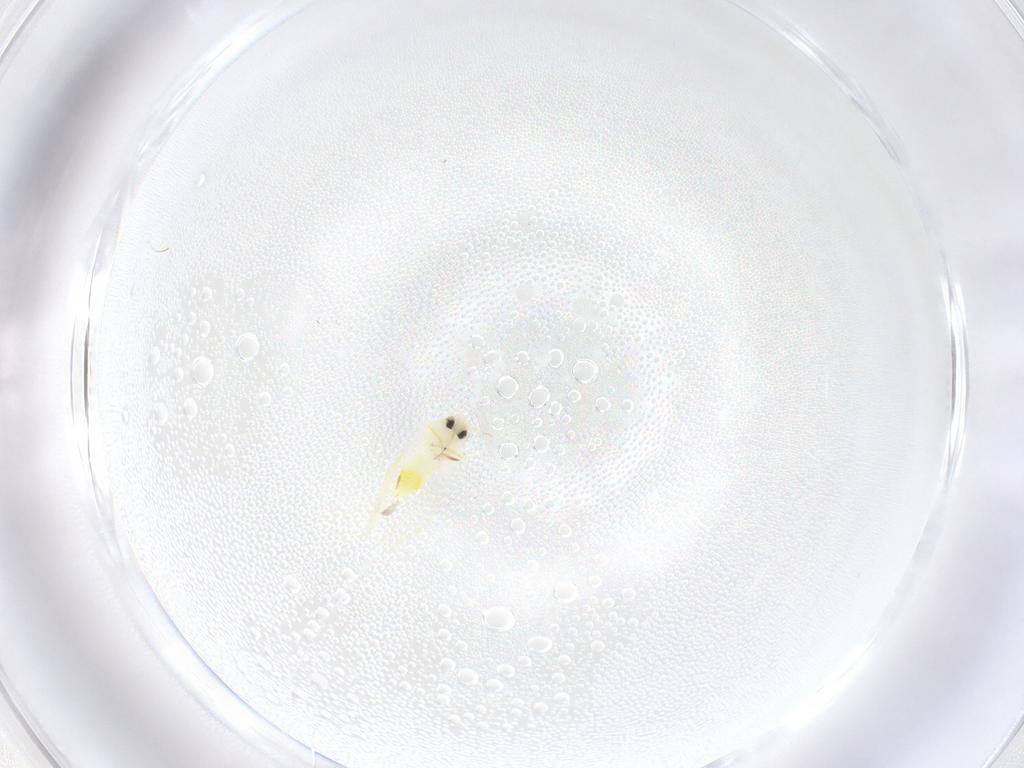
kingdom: Animalia
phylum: Arthropoda
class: Insecta
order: Hemiptera
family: Aleyrodidae
